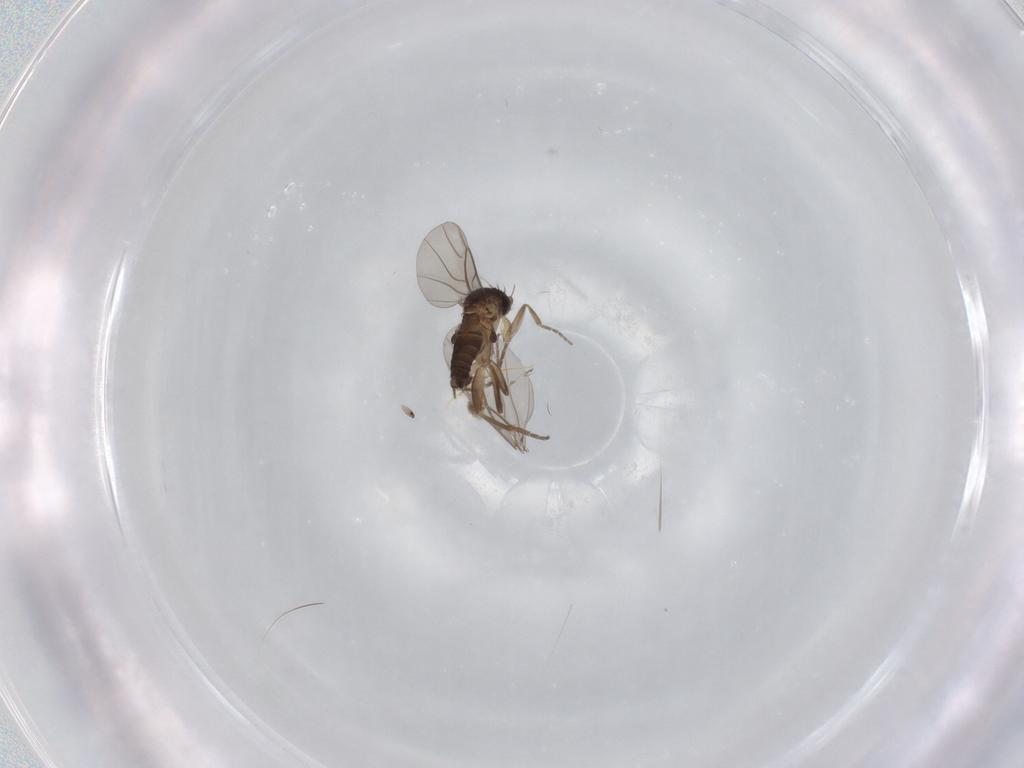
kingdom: Animalia
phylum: Arthropoda
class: Insecta
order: Diptera
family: Phoridae
